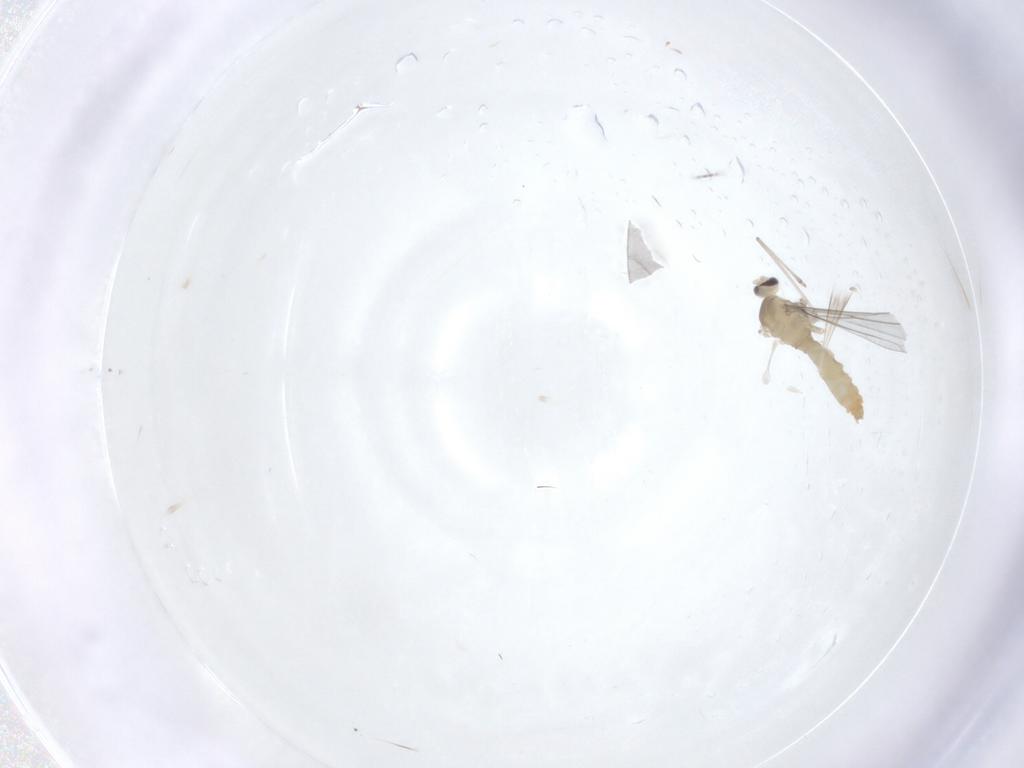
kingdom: Animalia
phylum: Arthropoda
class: Insecta
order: Diptera
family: Cecidomyiidae
